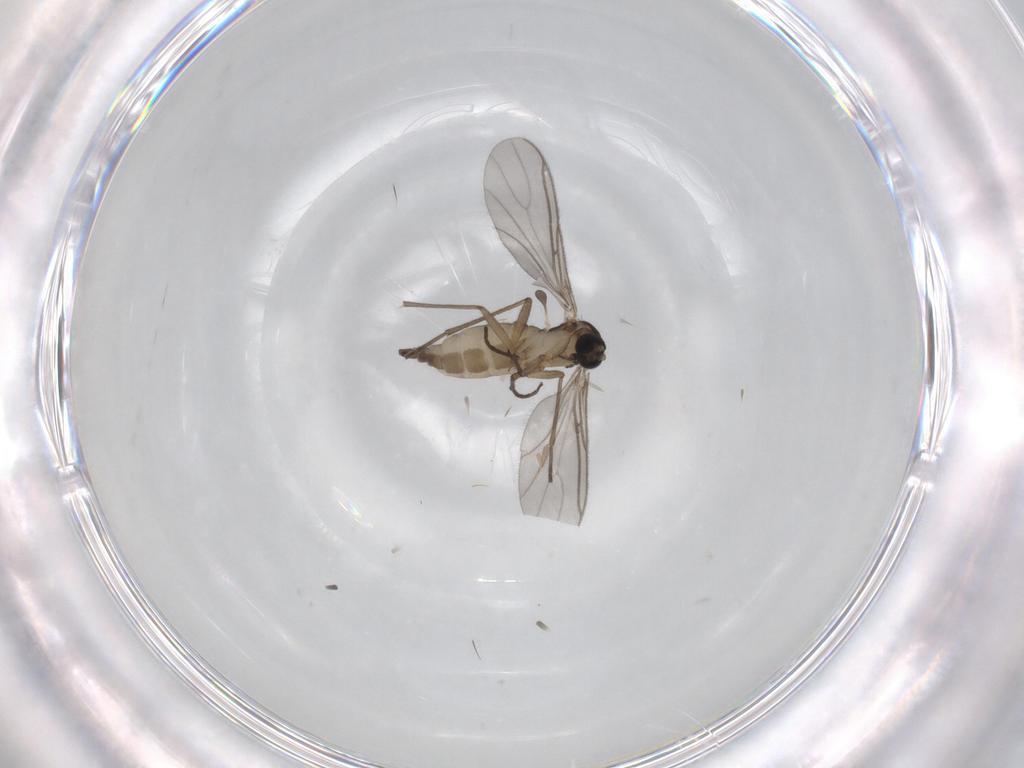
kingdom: Animalia
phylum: Arthropoda
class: Insecta
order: Diptera
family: Sciaridae
